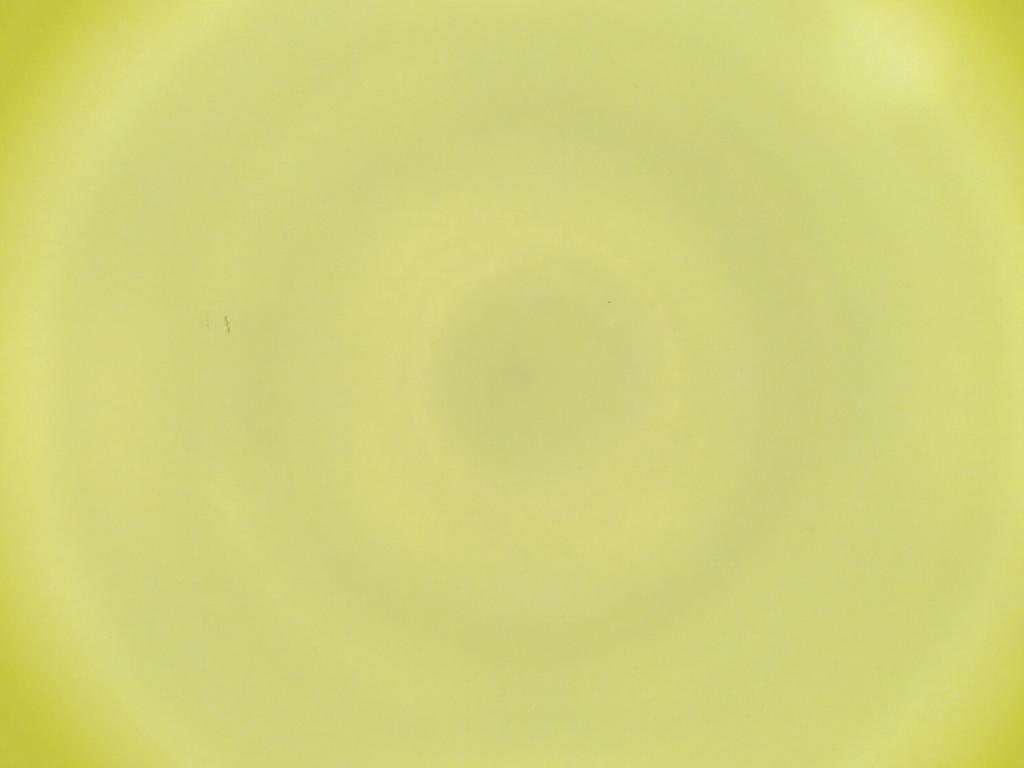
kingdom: Animalia
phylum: Arthropoda
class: Insecta
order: Diptera
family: Cecidomyiidae
